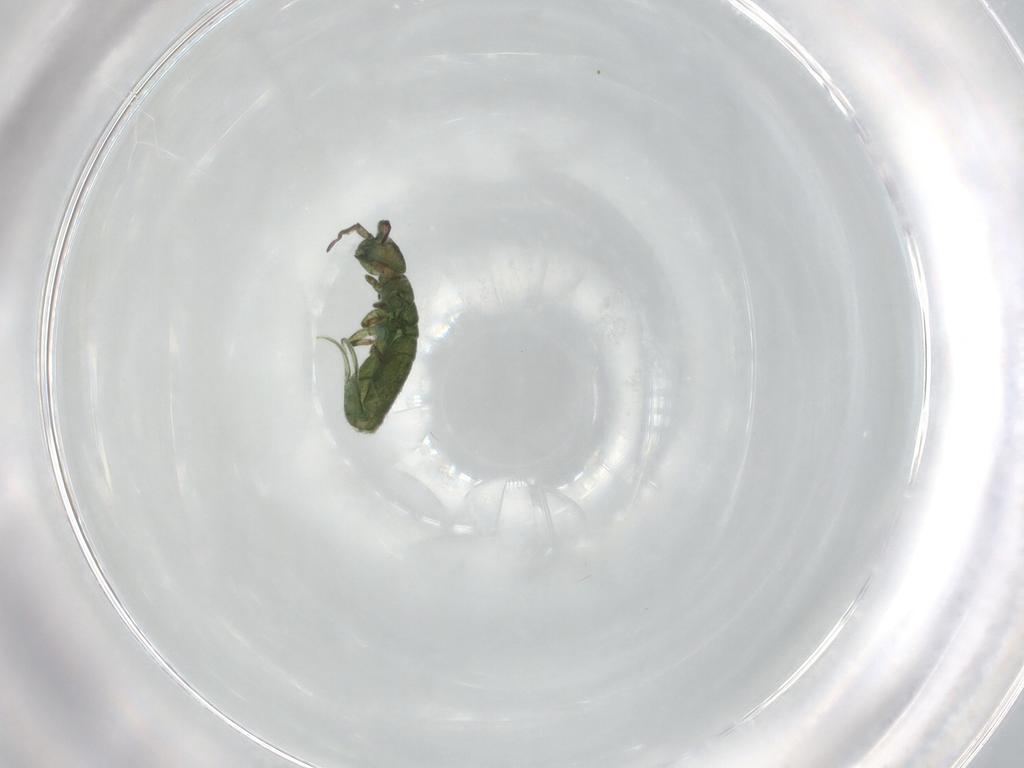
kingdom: Animalia
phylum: Arthropoda
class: Collembola
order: Entomobryomorpha
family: Isotomidae
